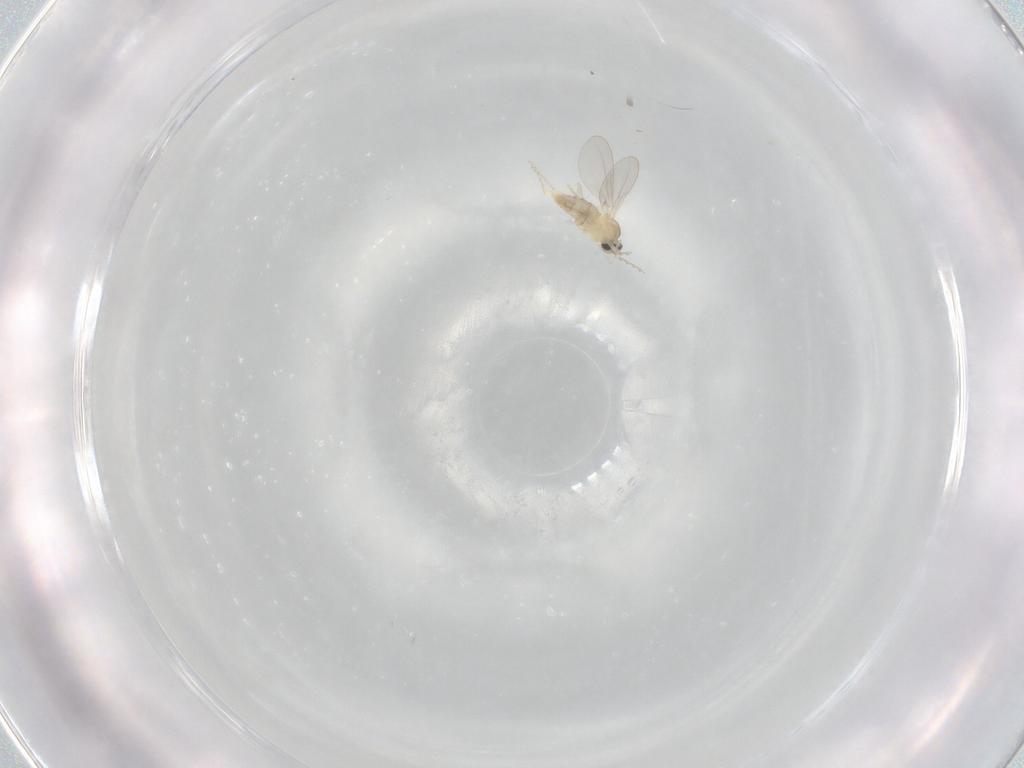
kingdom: Animalia
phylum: Arthropoda
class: Insecta
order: Diptera
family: Cecidomyiidae
